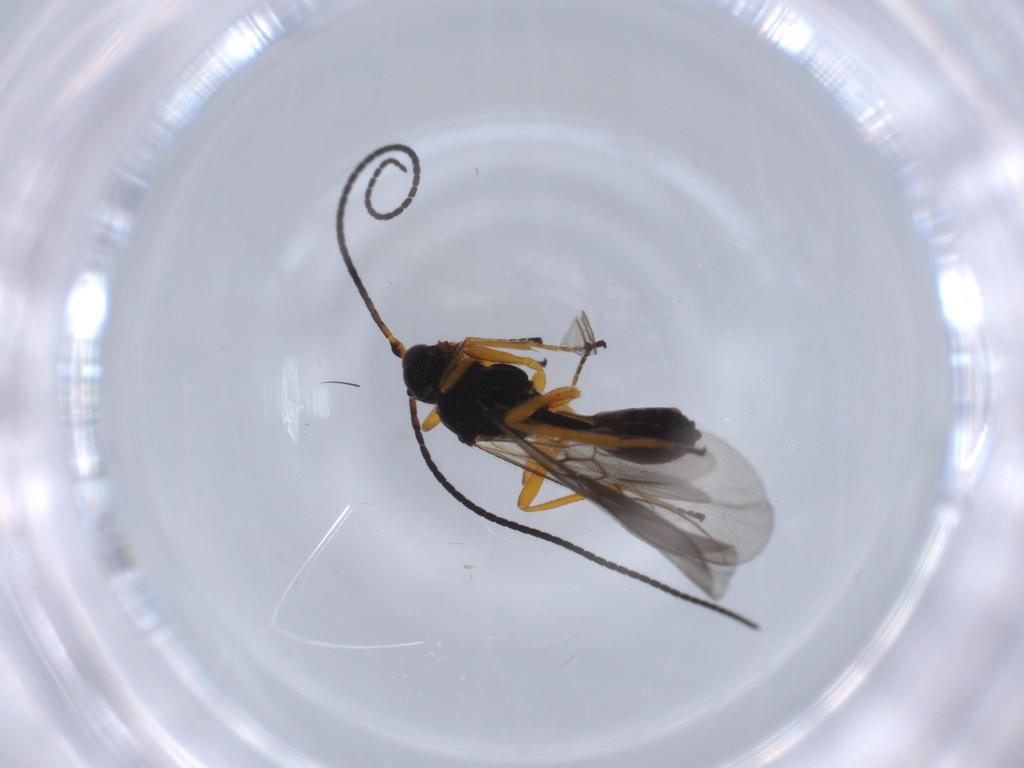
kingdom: Animalia
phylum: Arthropoda
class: Insecta
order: Hymenoptera
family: Braconidae
